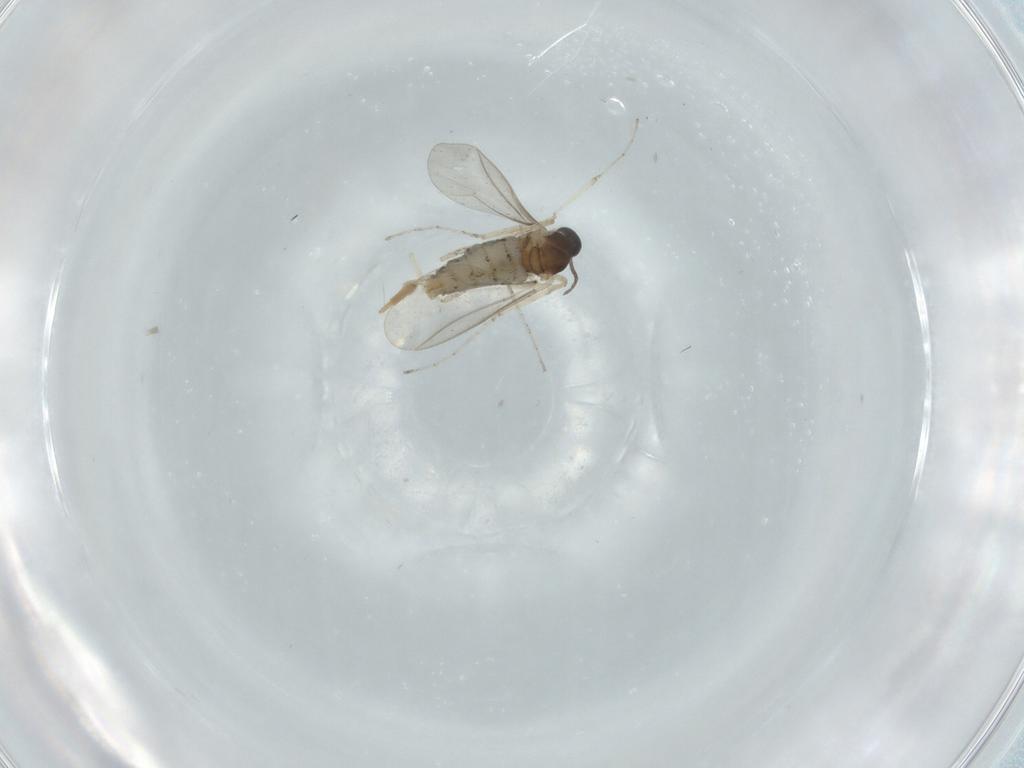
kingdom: Animalia
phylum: Arthropoda
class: Insecta
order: Diptera
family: Cecidomyiidae
